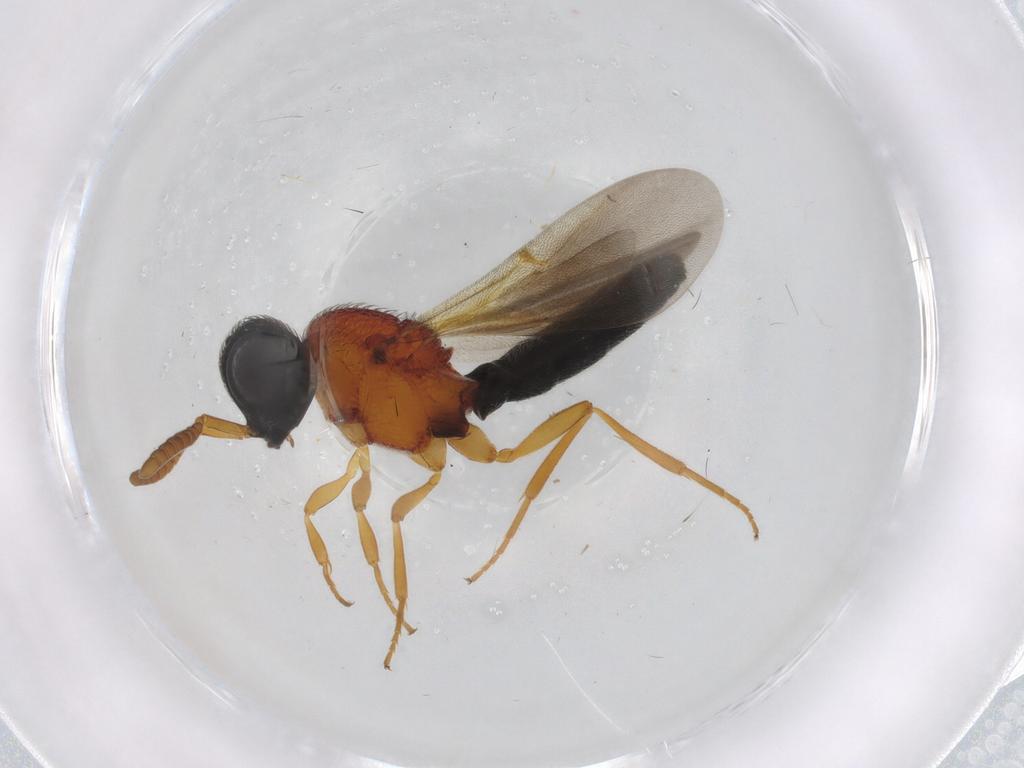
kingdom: Animalia
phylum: Arthropoda
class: Insecta
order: Hymenoptera
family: Scelionidae
